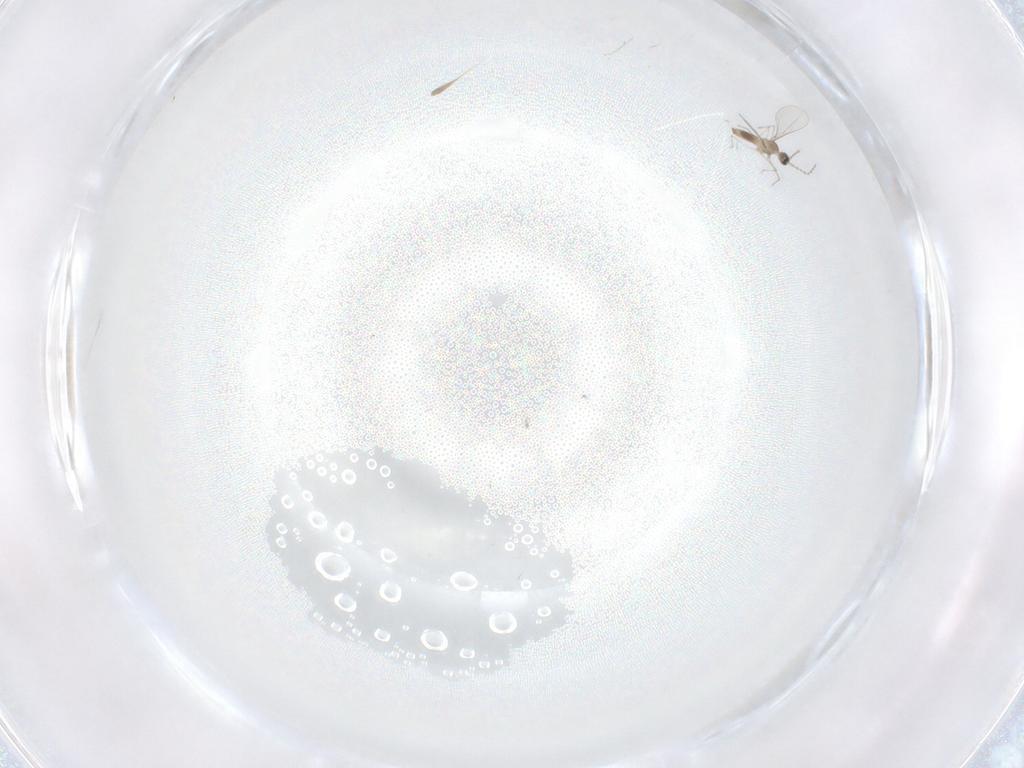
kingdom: Animalia
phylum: Arthropoda
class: Insecta
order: Diptera
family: Cecidomyiidae
